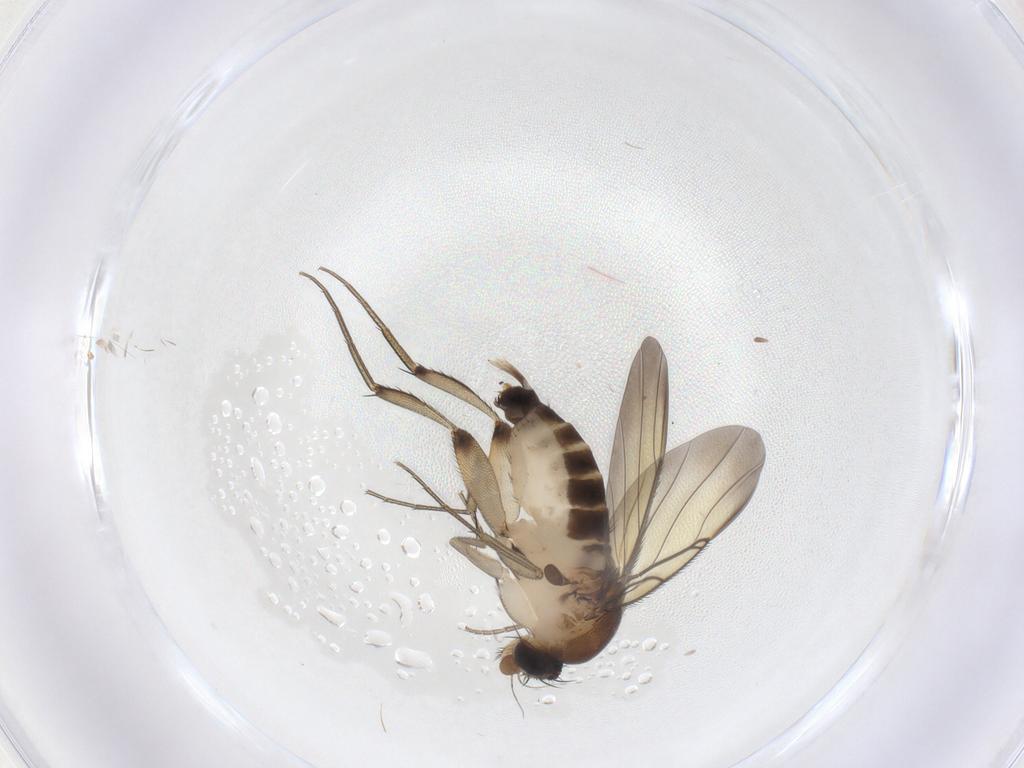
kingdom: Animalia
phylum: Arthropoda
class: Insecta
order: Diptera
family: Phoridae
